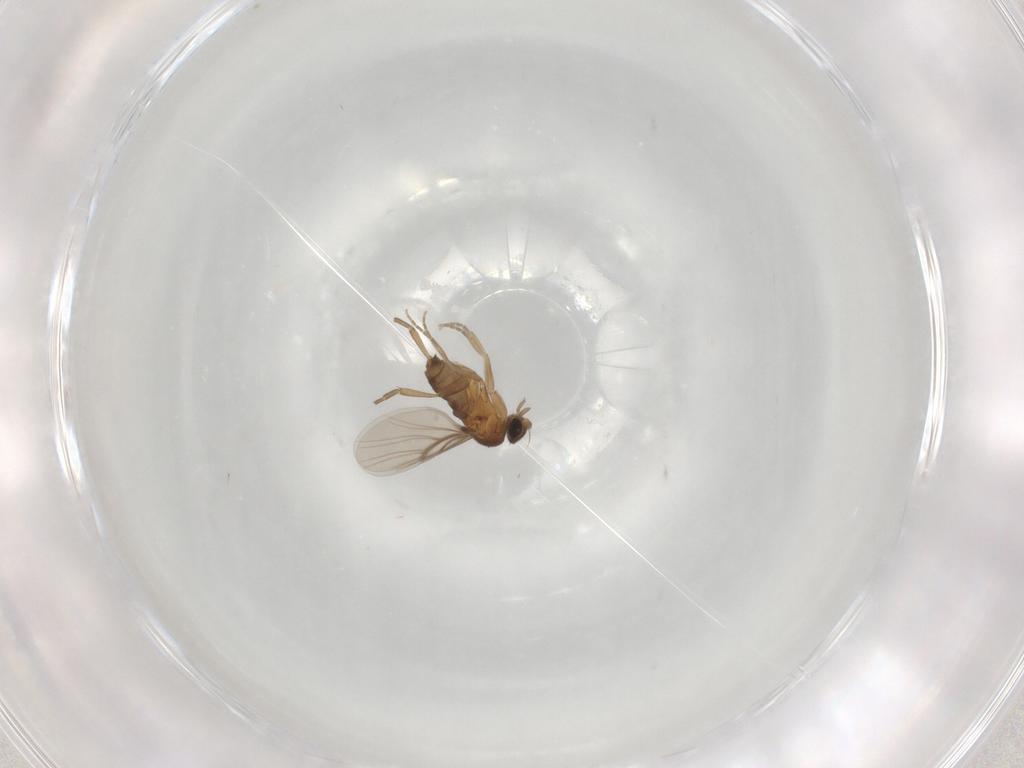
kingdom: Animalia
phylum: Arthropoda
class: Insecta
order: Diptera
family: Phoridae
